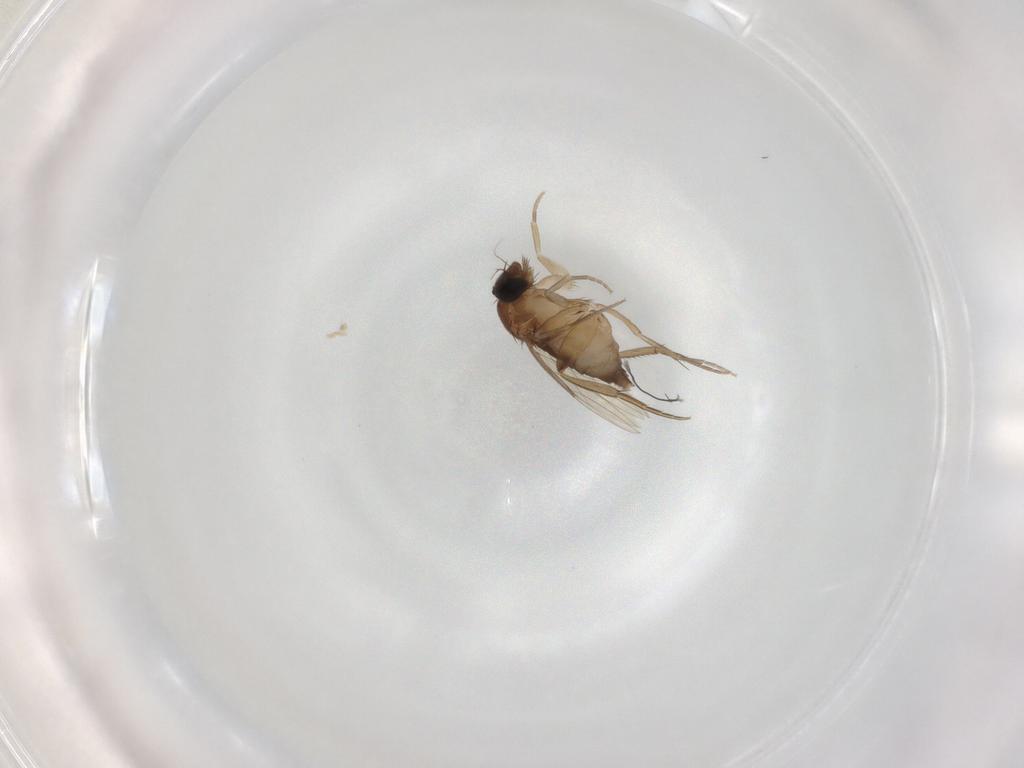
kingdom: Animalia
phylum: Arthropoda
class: Insecta
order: Diptera
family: Phoridae
